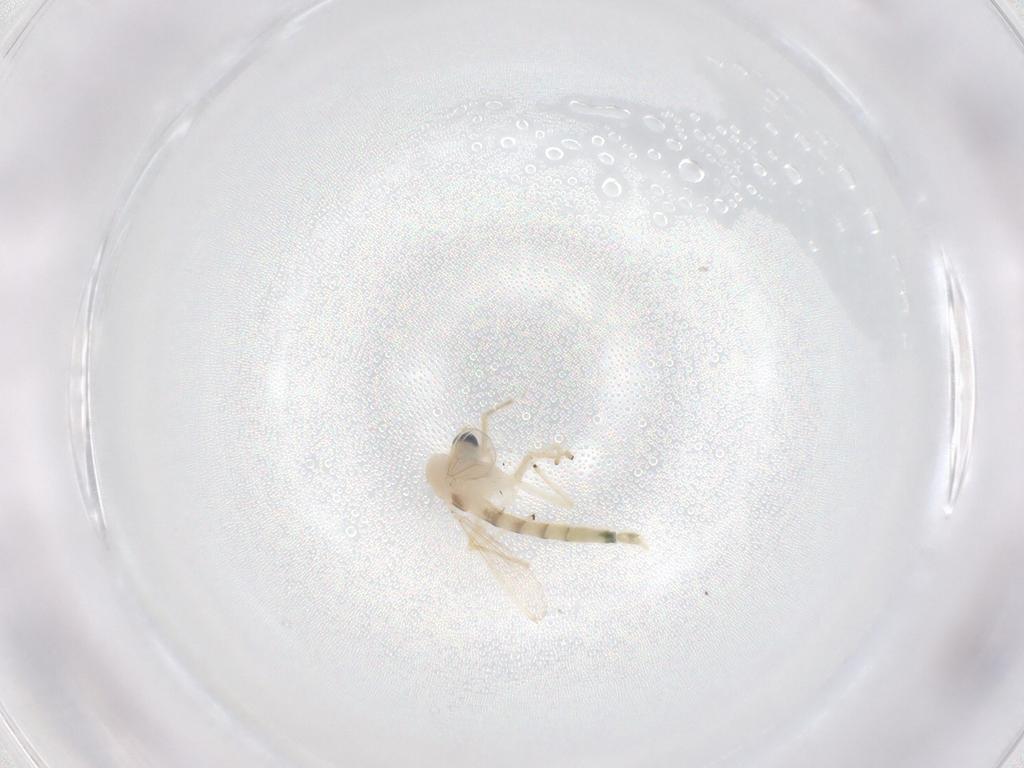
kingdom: Animalia
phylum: Arthropoda
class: Insecta
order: Diptera
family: Chironomidae
